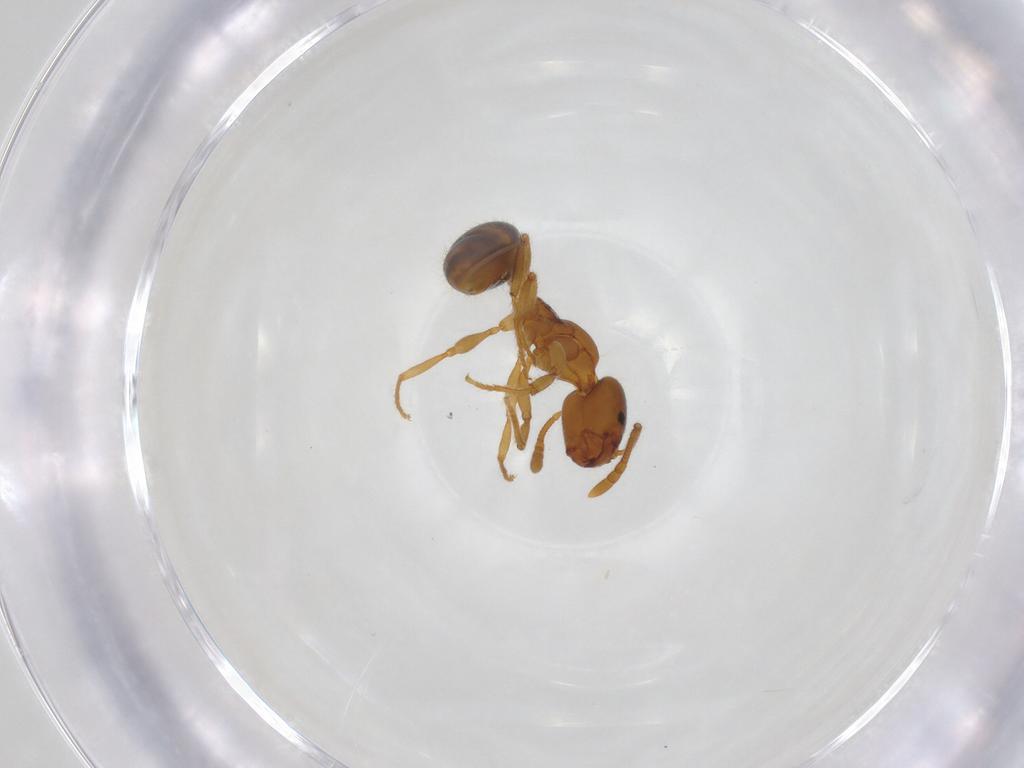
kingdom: Animalia
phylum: Arthropoda
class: Insecta
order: Hymenoptera
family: Formicidae
